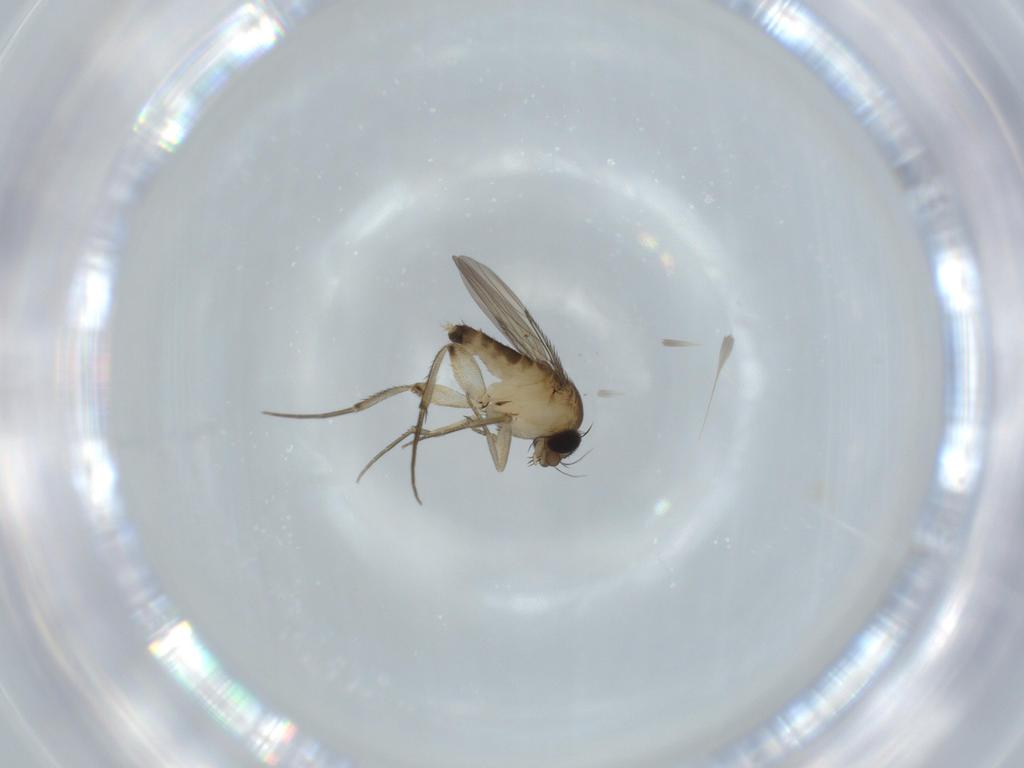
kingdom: Animalia
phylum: Arthropoda
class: Insecta
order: Diptera
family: Phoridae
